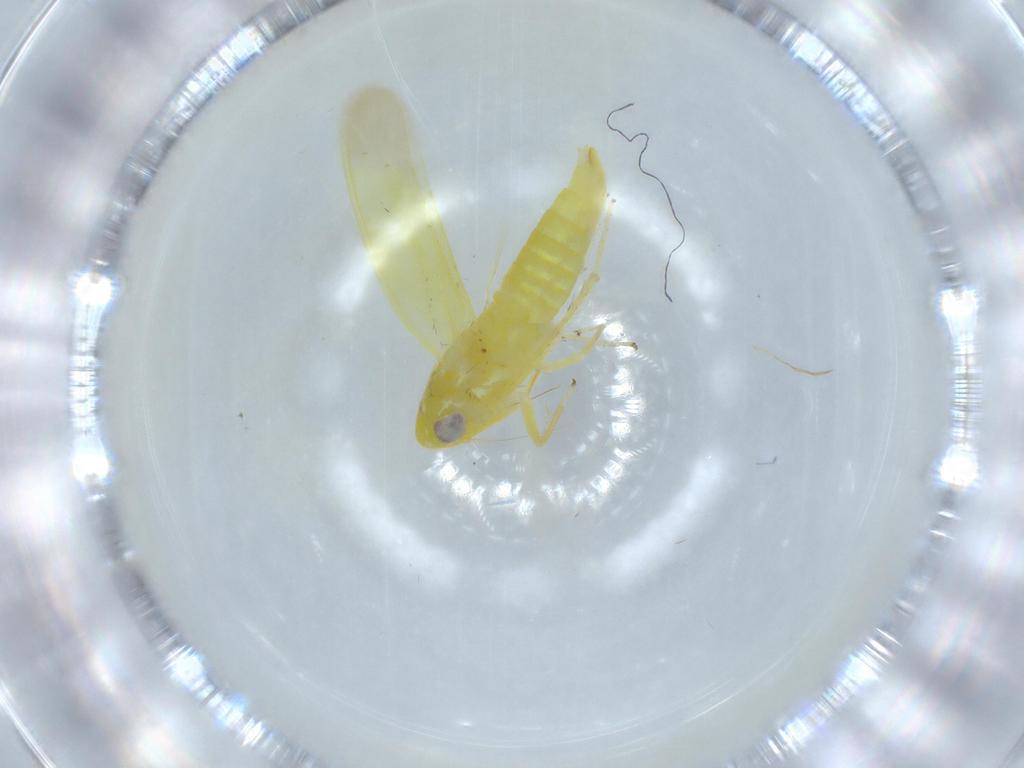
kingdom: Animalia
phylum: Arthropoda
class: Insecta
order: Hemiptera
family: Cicadellidae
